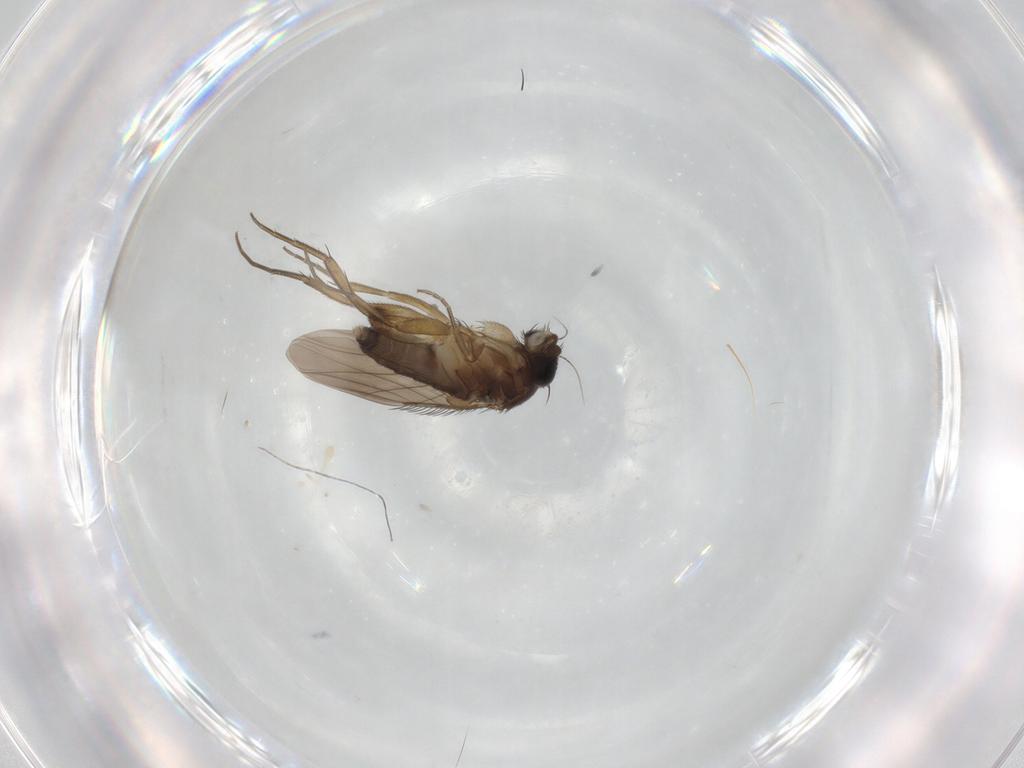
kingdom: Animalia
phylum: Arthropoda
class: Insecta
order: Diptera
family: Phoridae
